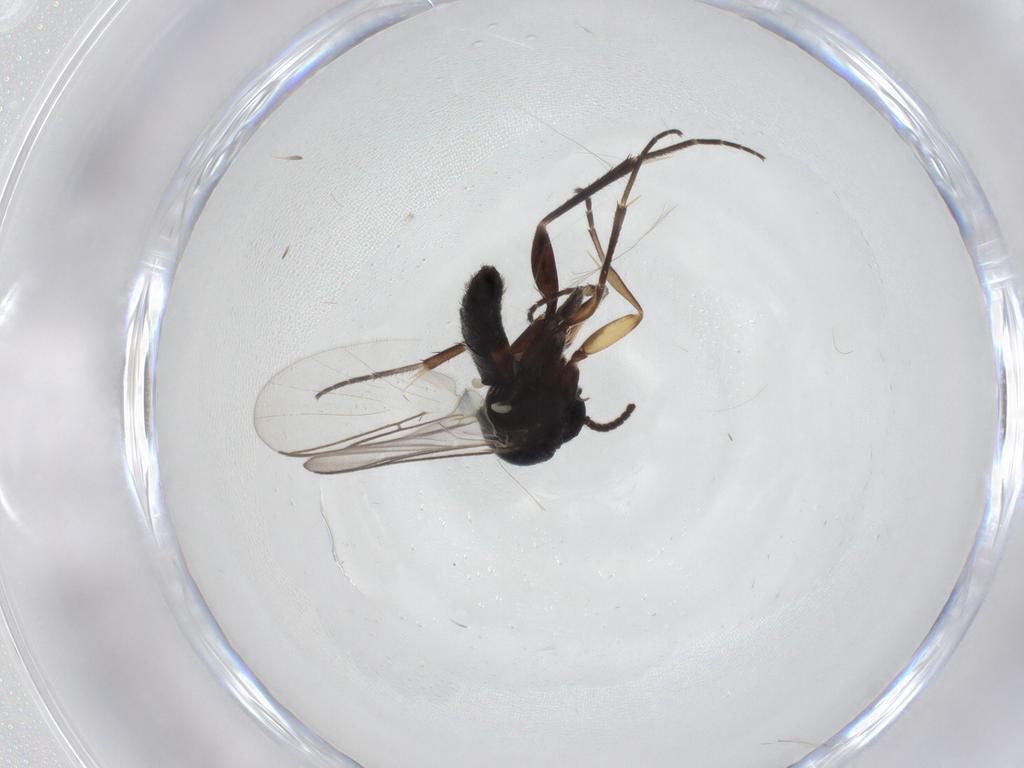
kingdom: Animalia
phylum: Arthropoda
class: Insecta
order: Diptera
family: Mycetophilidae
